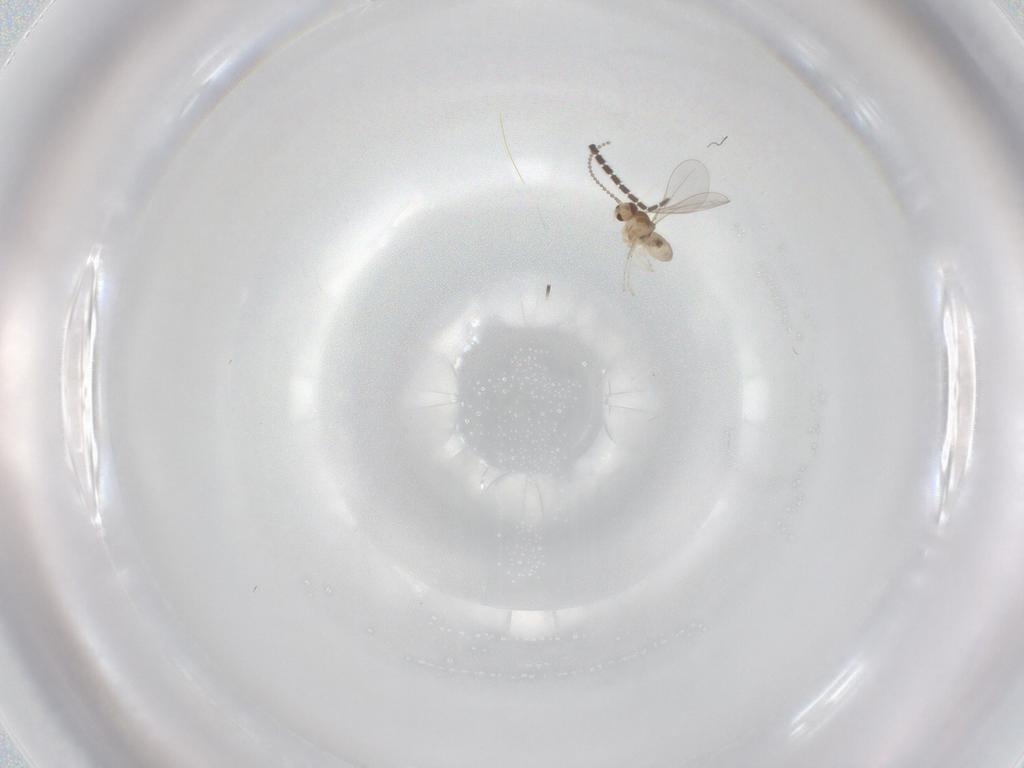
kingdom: Animalia
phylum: Arthropoda
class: Insecta
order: Diptera
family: Cecidomyiidae
